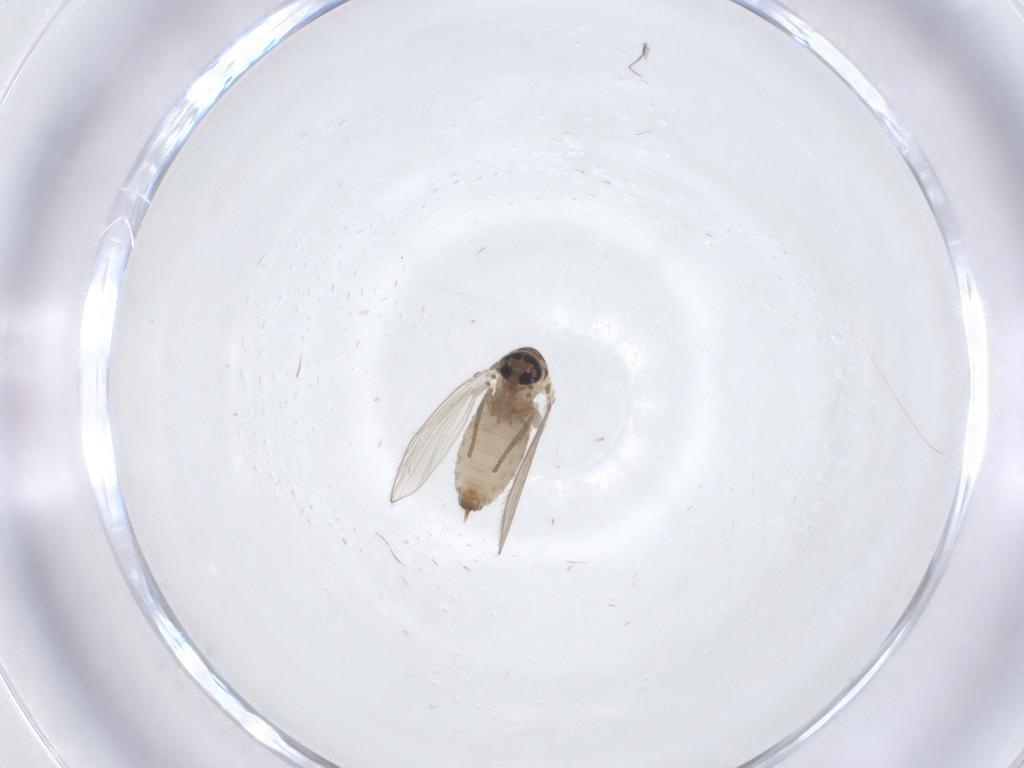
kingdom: Animalia
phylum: Arthropoda
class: Insecta
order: Diptera
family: Psychodidae
